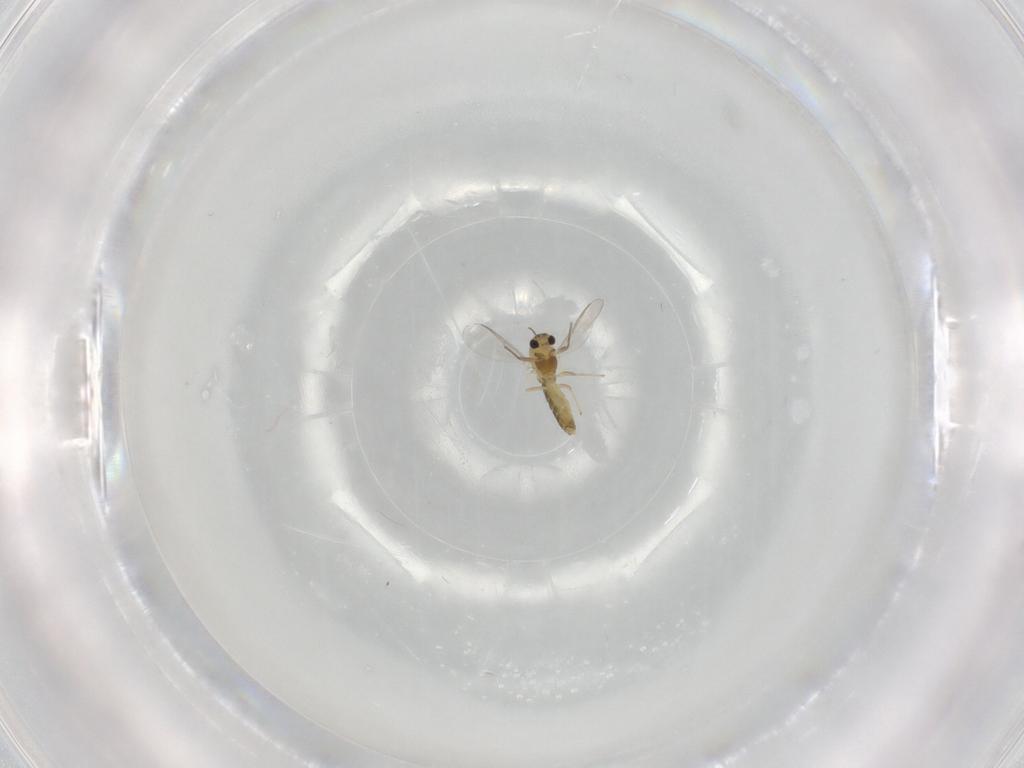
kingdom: Animalia
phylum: Arthropoda
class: Insecta
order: Diptera
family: Chironomidae
